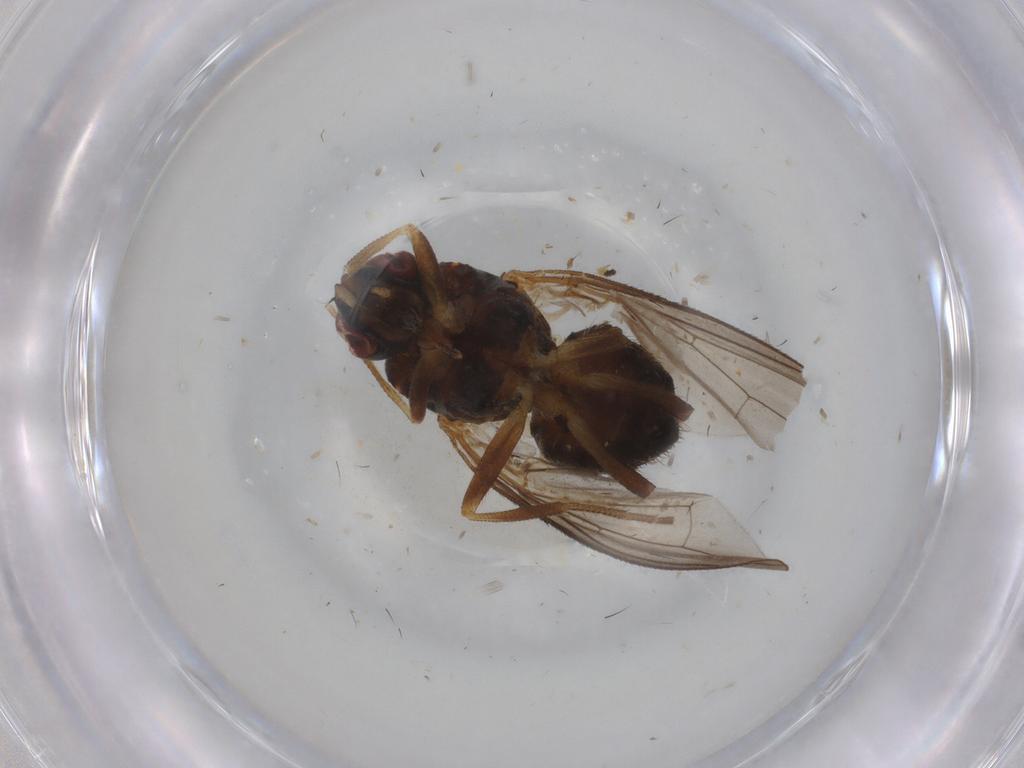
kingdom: Animalia
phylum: Arthropoda
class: Insecta
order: Diptera
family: Muscidae
